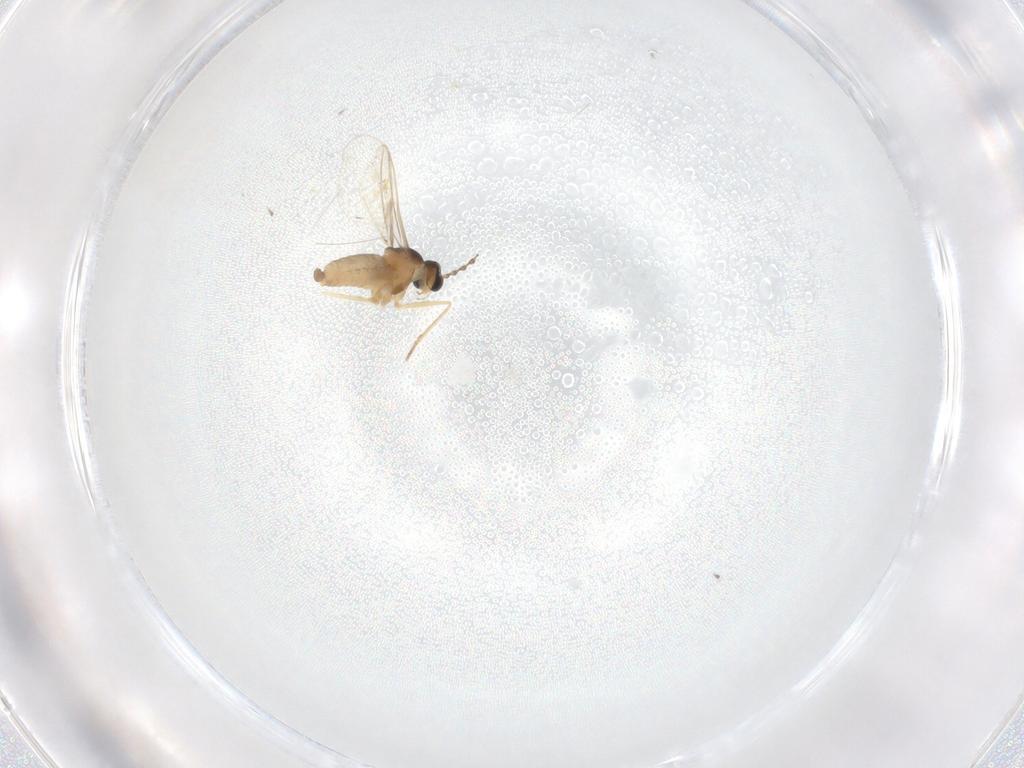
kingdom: Animalia
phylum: Arthropoda
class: Insecta
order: Diptera
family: Cecidomyiidae
